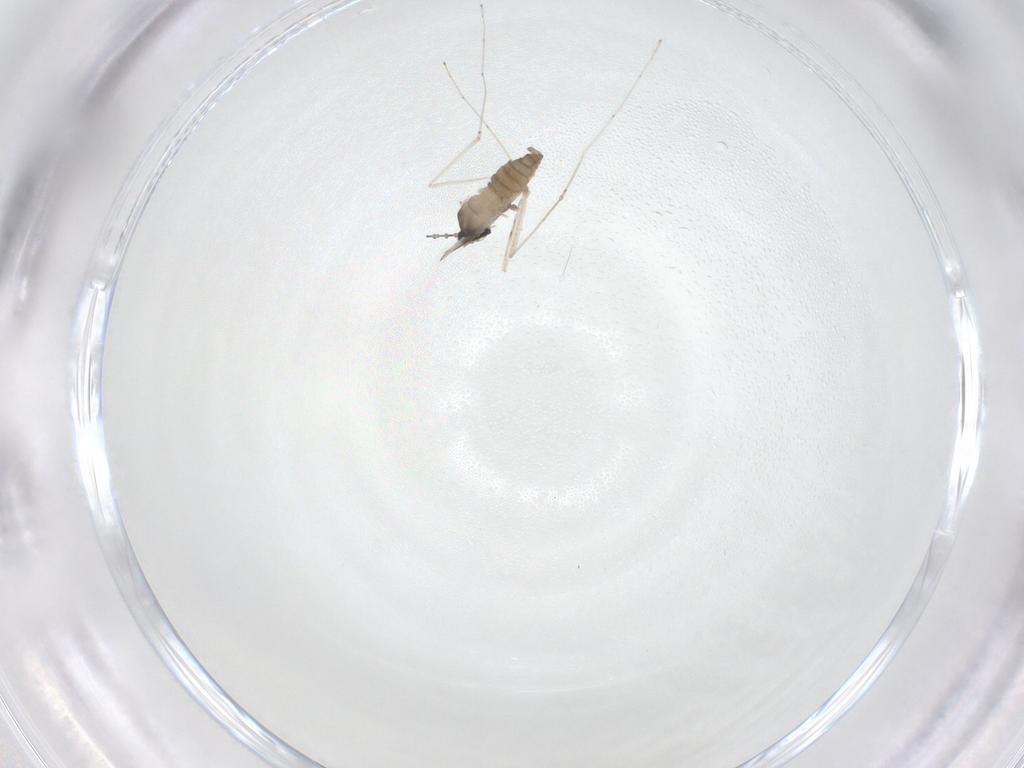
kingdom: Animalia
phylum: Arthropoda
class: Insecta
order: Diptera
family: Cecidomyiidae
